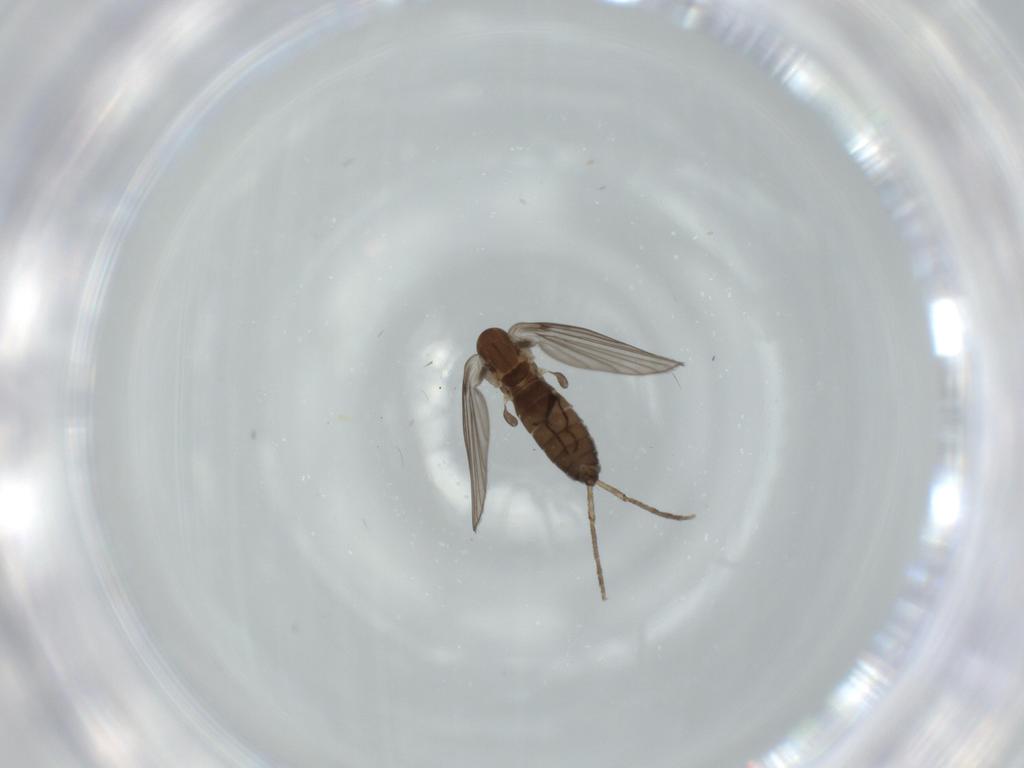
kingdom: Animalia
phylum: Arthropoda
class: Insecta
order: Diptera
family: Psychodidae
